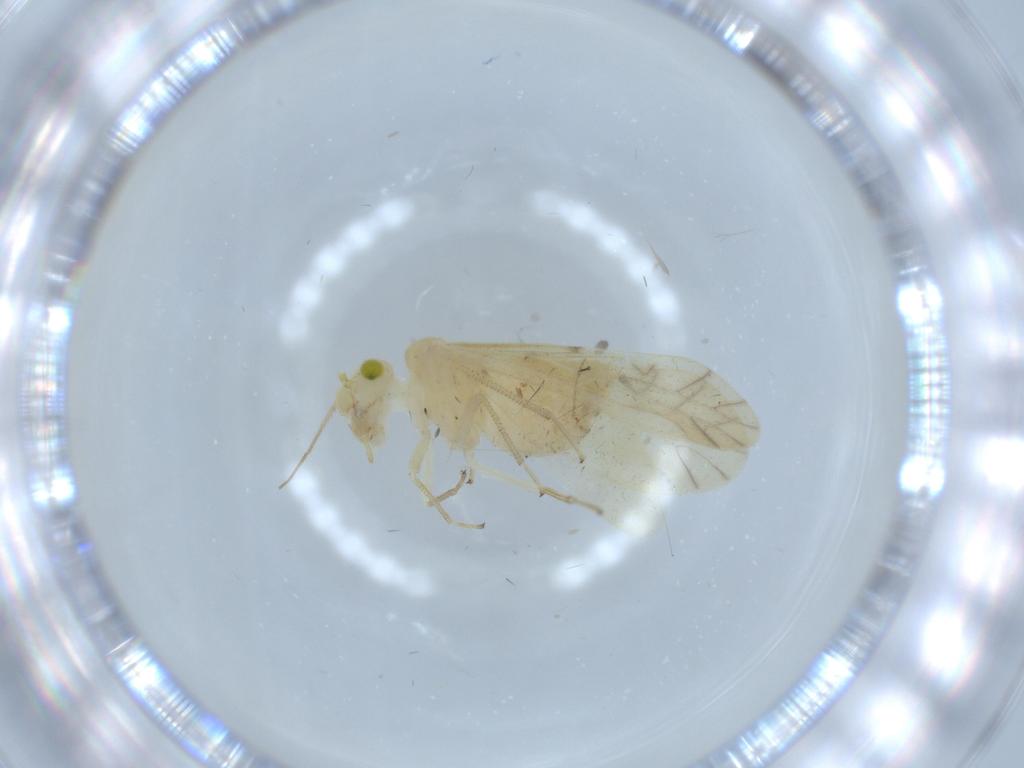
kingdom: Animalia
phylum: Arthropoda
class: Insecta
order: Psocodea
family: Caeciliusidae
